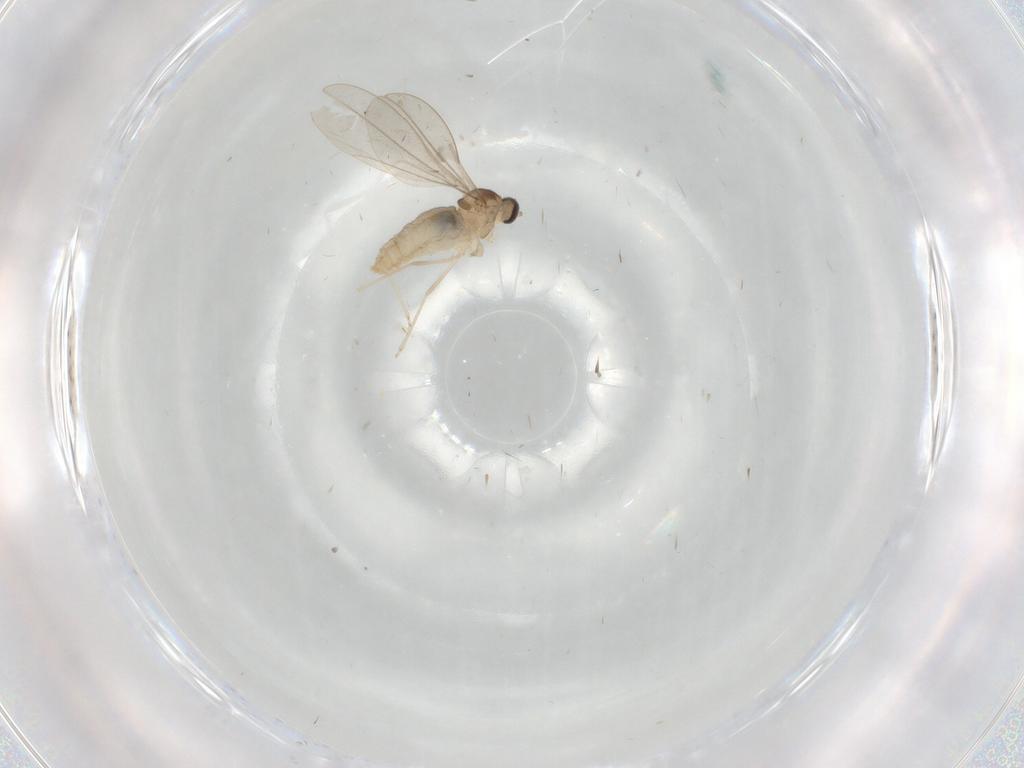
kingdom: Animalia
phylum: Arthropoda
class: Insecta
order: Diptera
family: Cecidomyiidae
